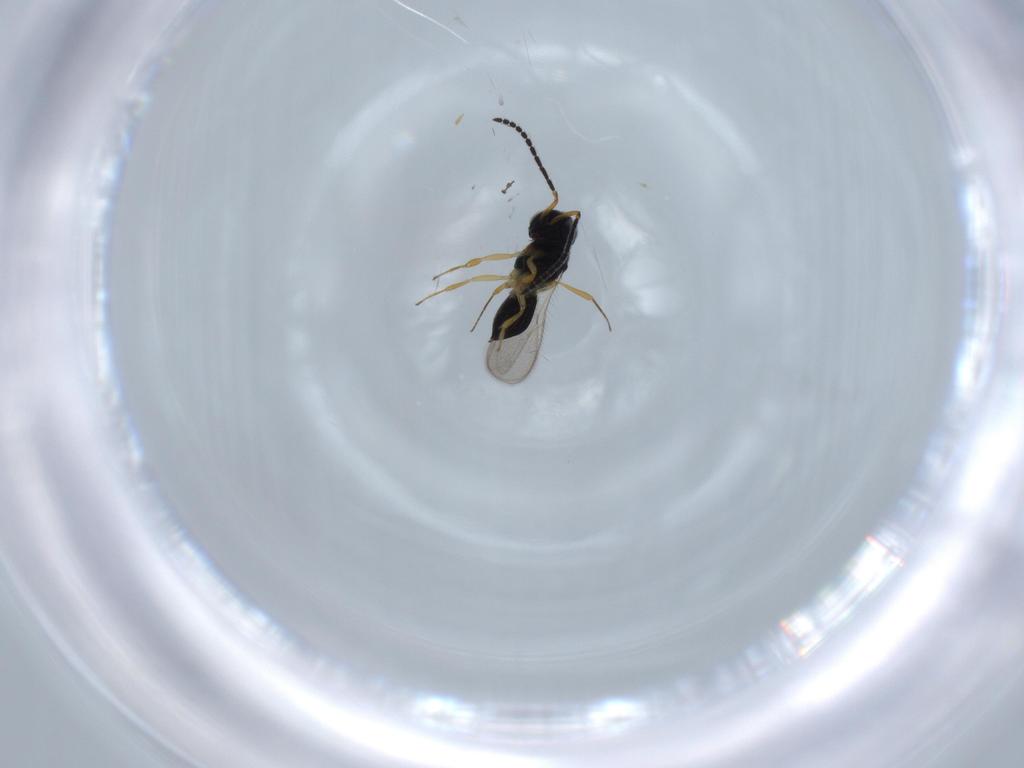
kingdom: Animalia
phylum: Arthropoda
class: Insecta
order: Hymenoptera
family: Scelionidae
